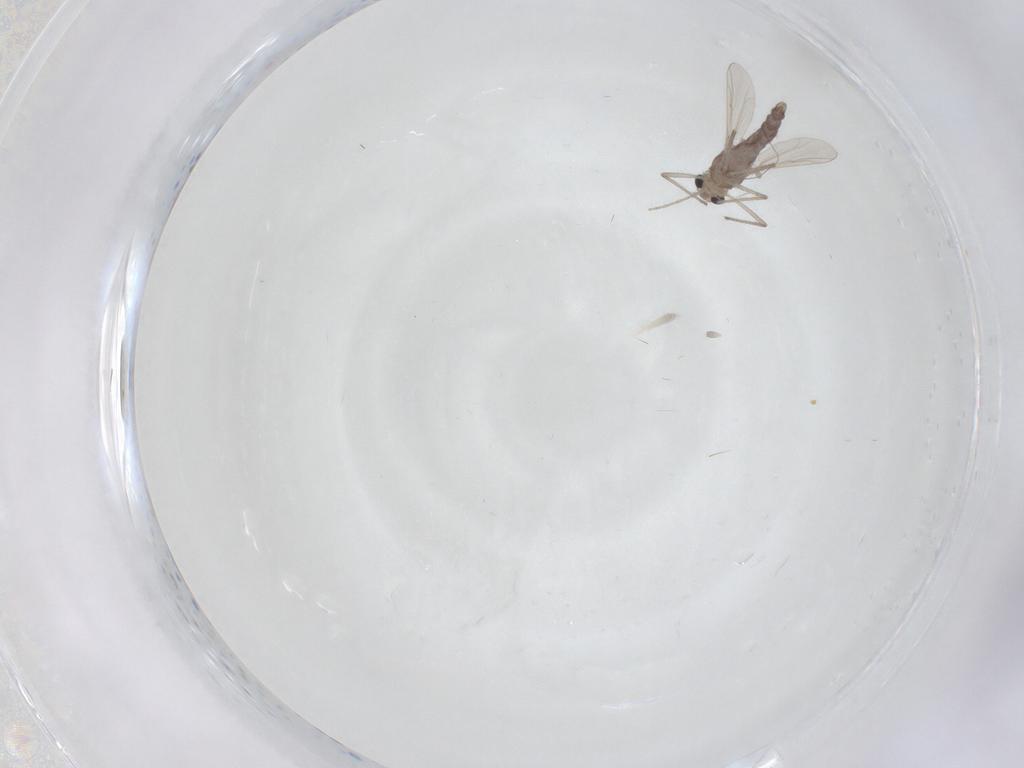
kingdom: Animalia
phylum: Arthropoda
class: Insecta
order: Diptera
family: Chironomidae
